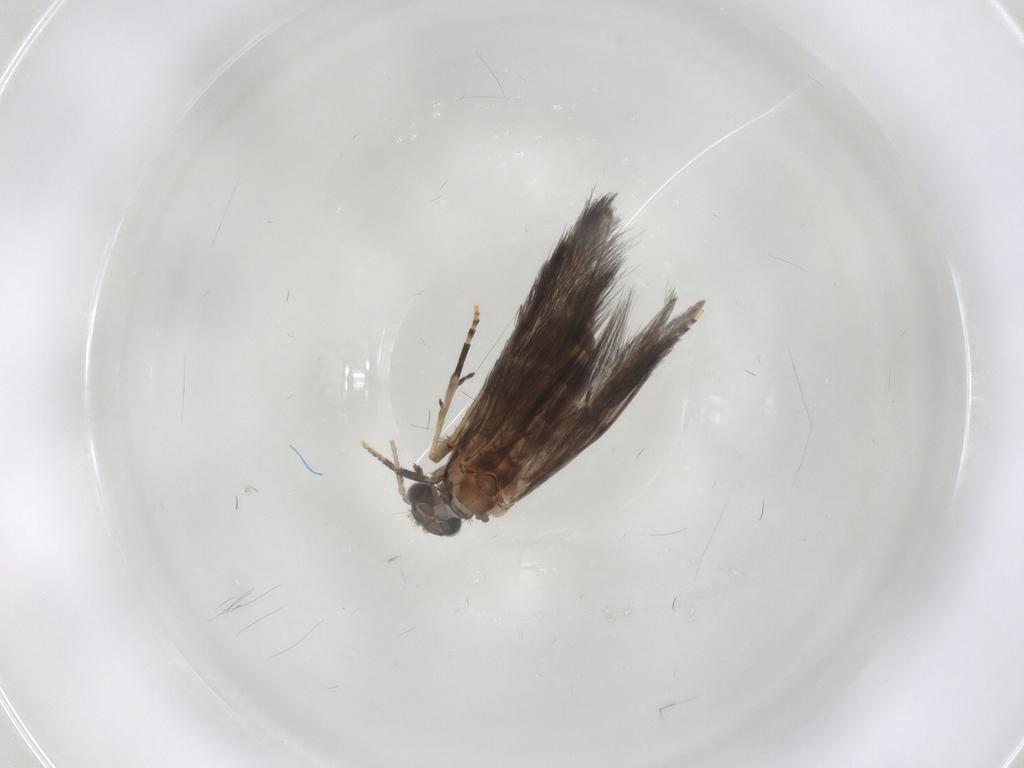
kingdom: Animalia
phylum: Arthropoda
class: Insecta
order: Trichoptera
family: Hydroptilidae
